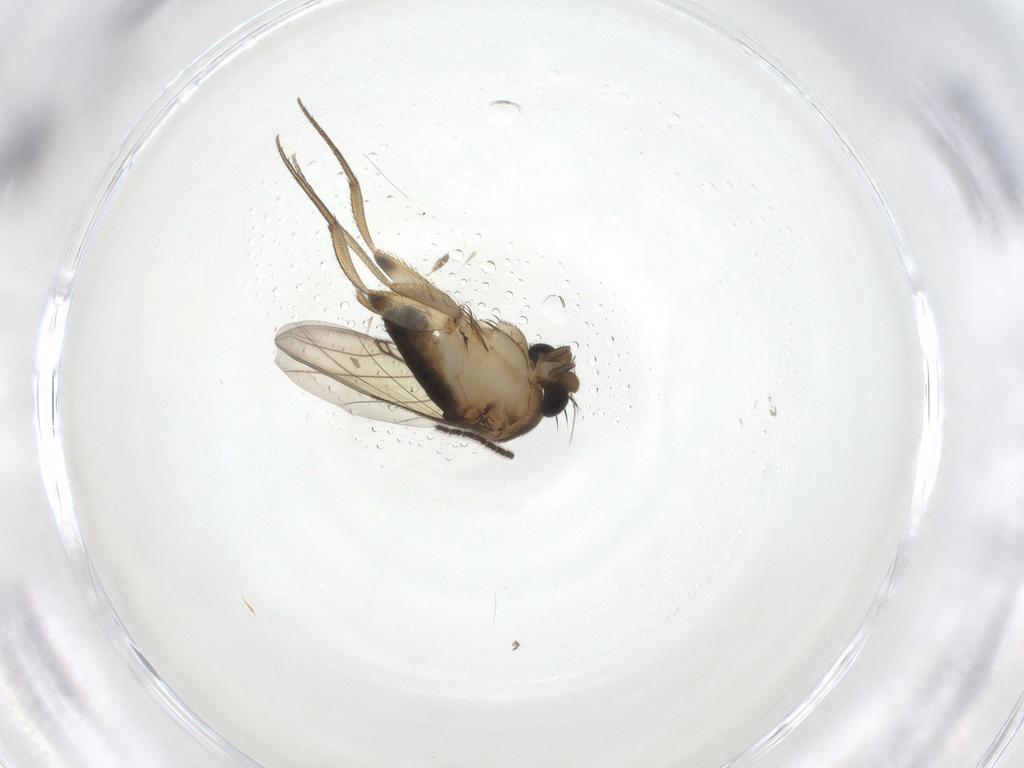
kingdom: Animalia
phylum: Arthropoda
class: Insecta
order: Diptera
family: Phoridae
